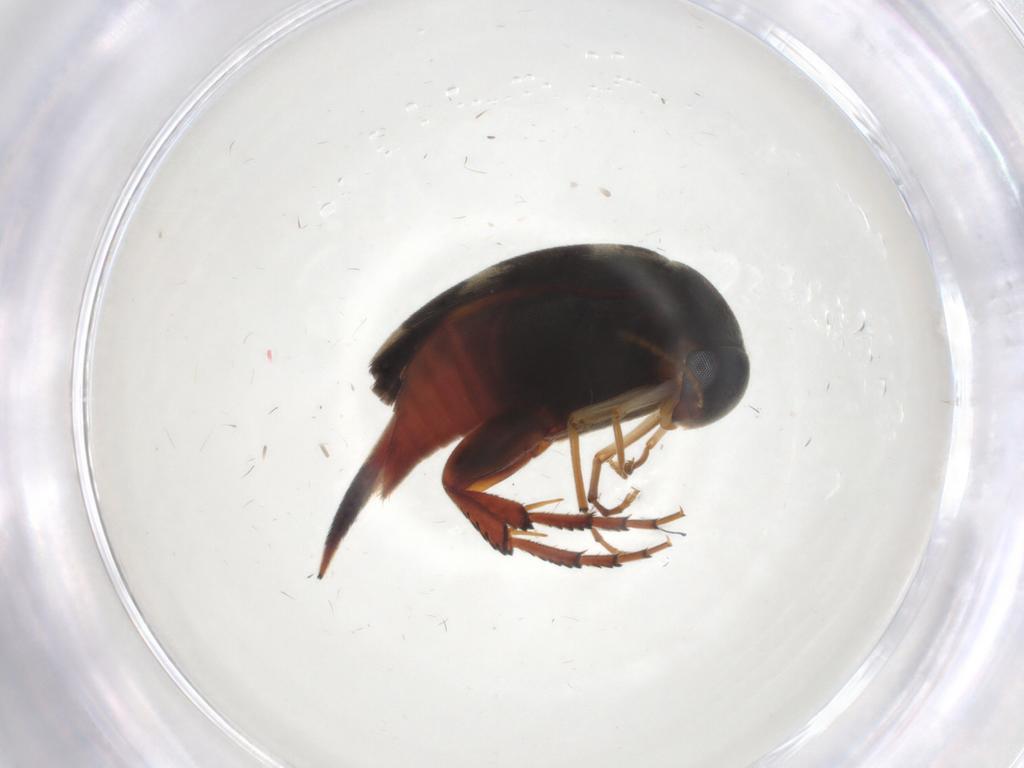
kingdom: Animalia
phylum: Arthropoda
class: Insecta
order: Coleoptera
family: Mordellidae
